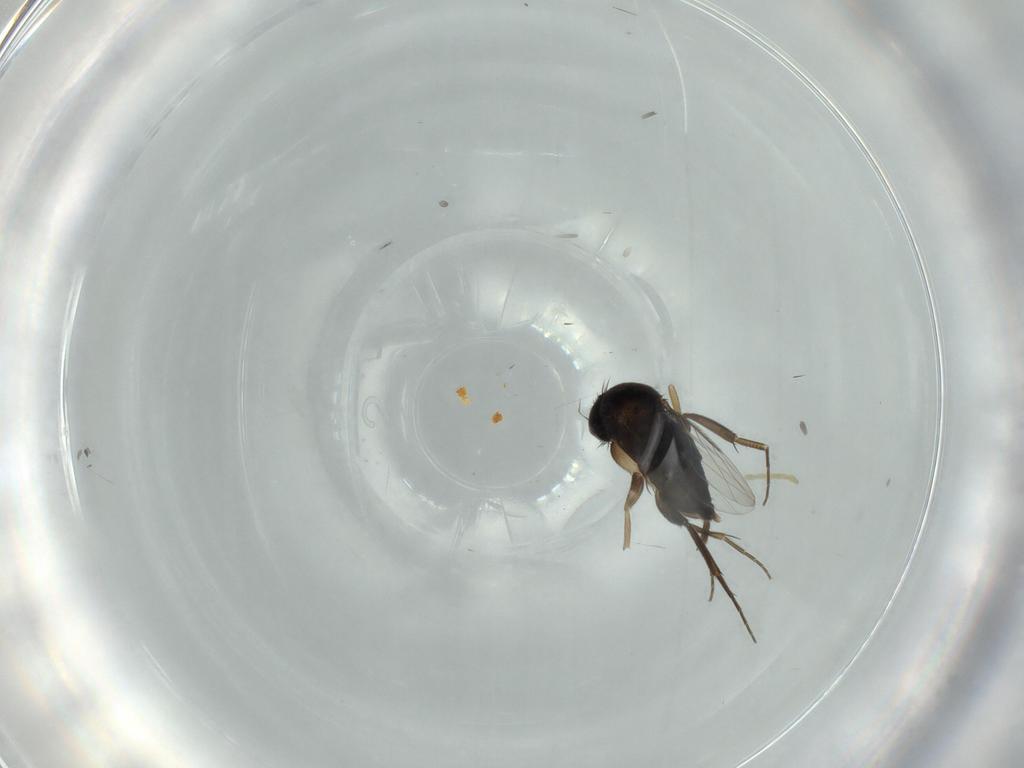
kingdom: Animalia
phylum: Arthropoda
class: Insecta
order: Diptera
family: Phoridae
